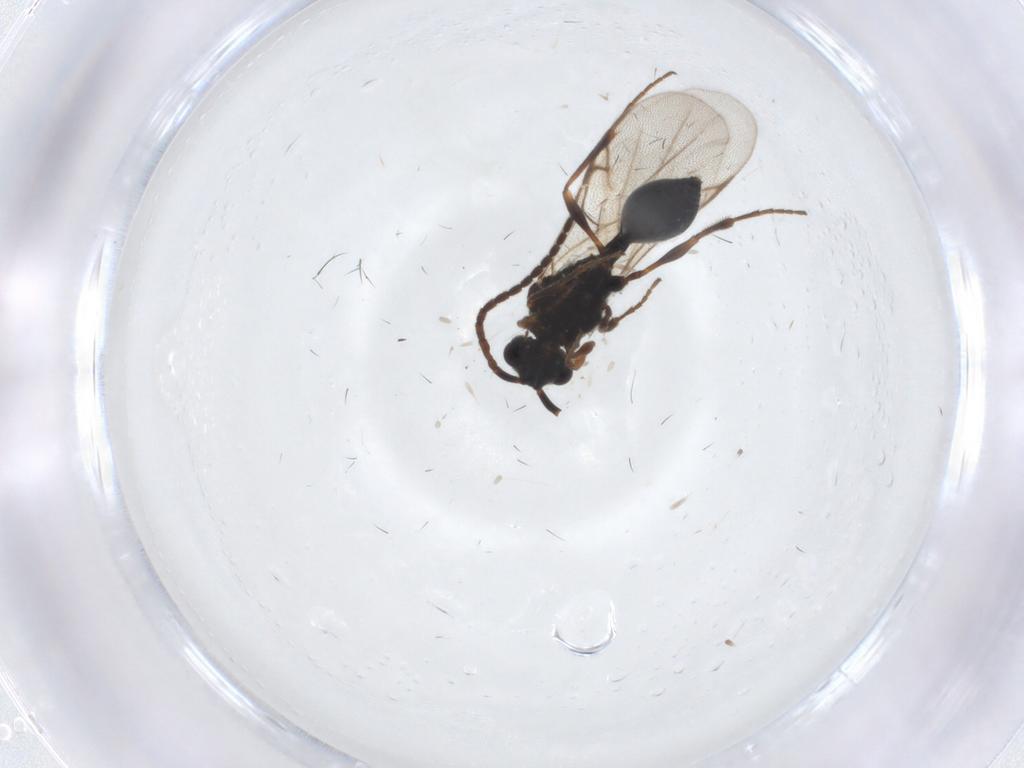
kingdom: Animalia
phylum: Arthropoda
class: Insecta
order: Hymenoptera
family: Diapriidae
